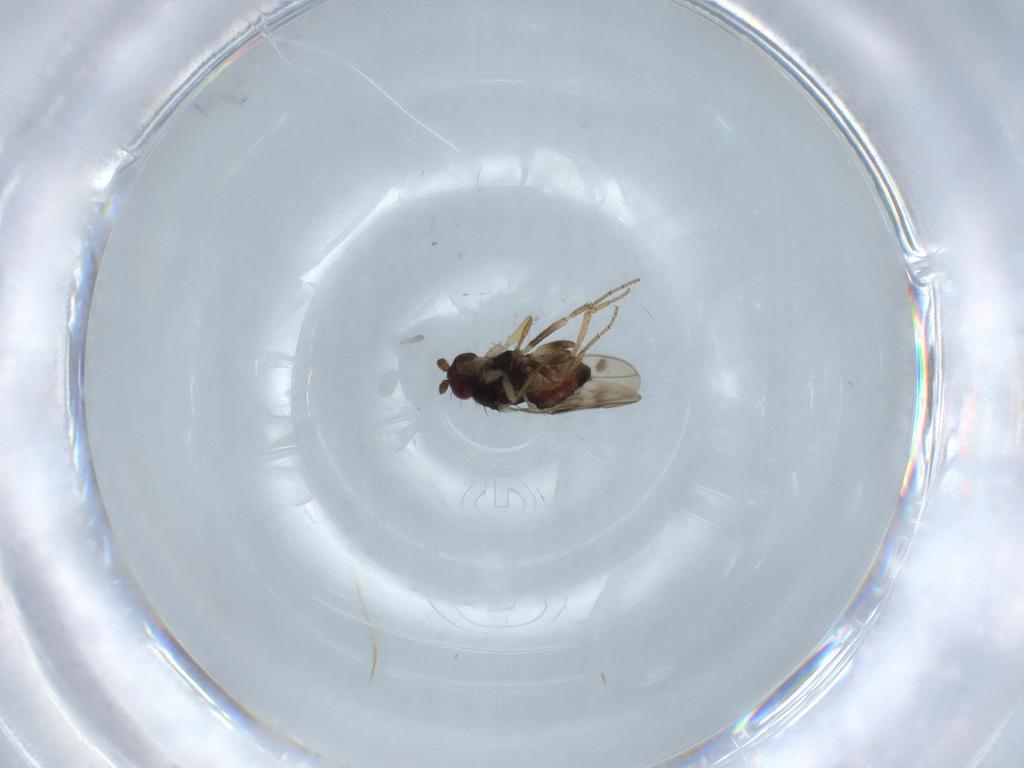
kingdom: Animalia
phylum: Arthropoda
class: Insecta
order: Diptera
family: Sphaeroceridae
